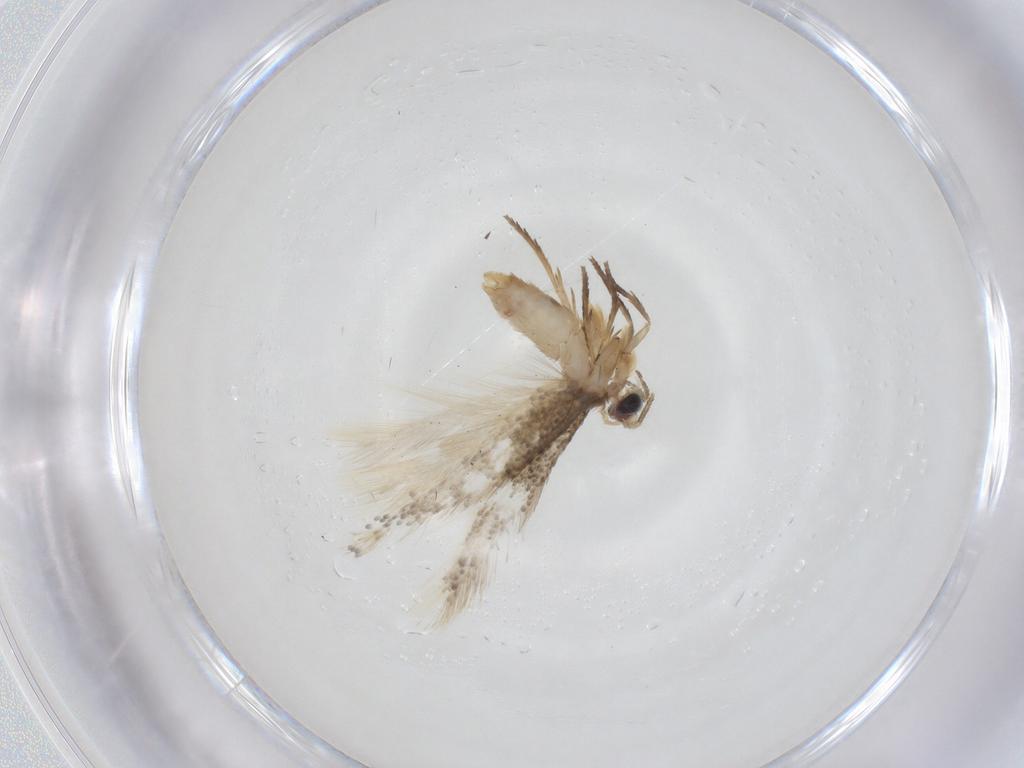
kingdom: Animalia
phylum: Arthropoda
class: Insecta
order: Lepidoptera
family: Nepticulidae
